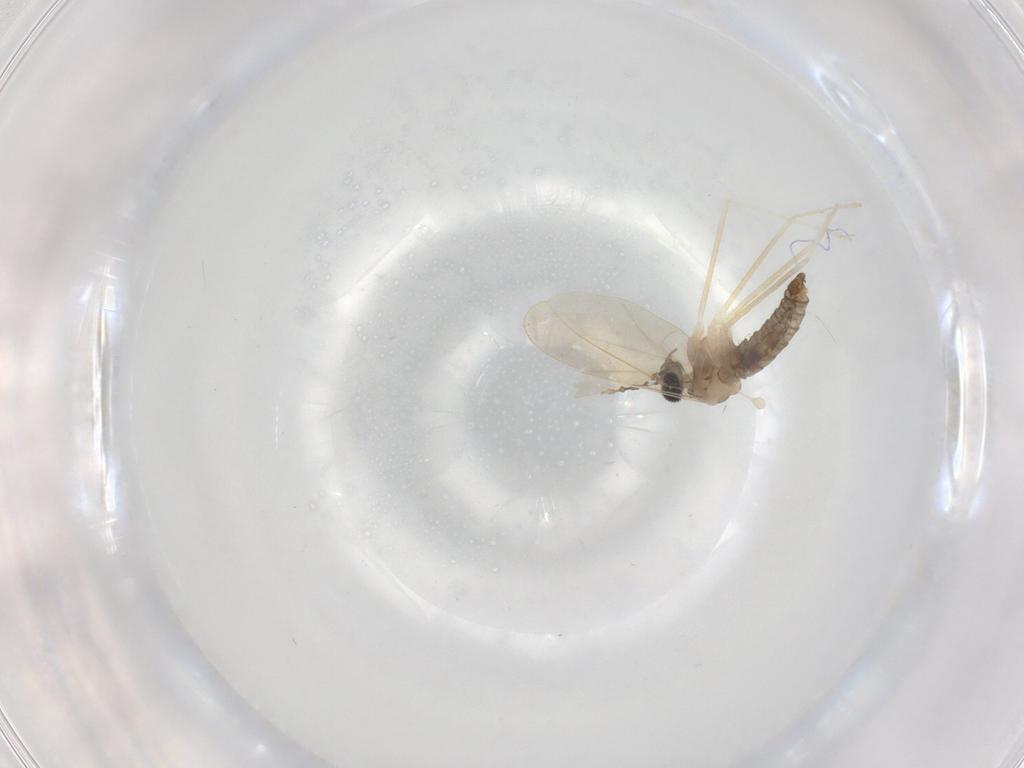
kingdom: Animalia
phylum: Arthropoda
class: Insecta
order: Diptera
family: Cecidomyiidae
